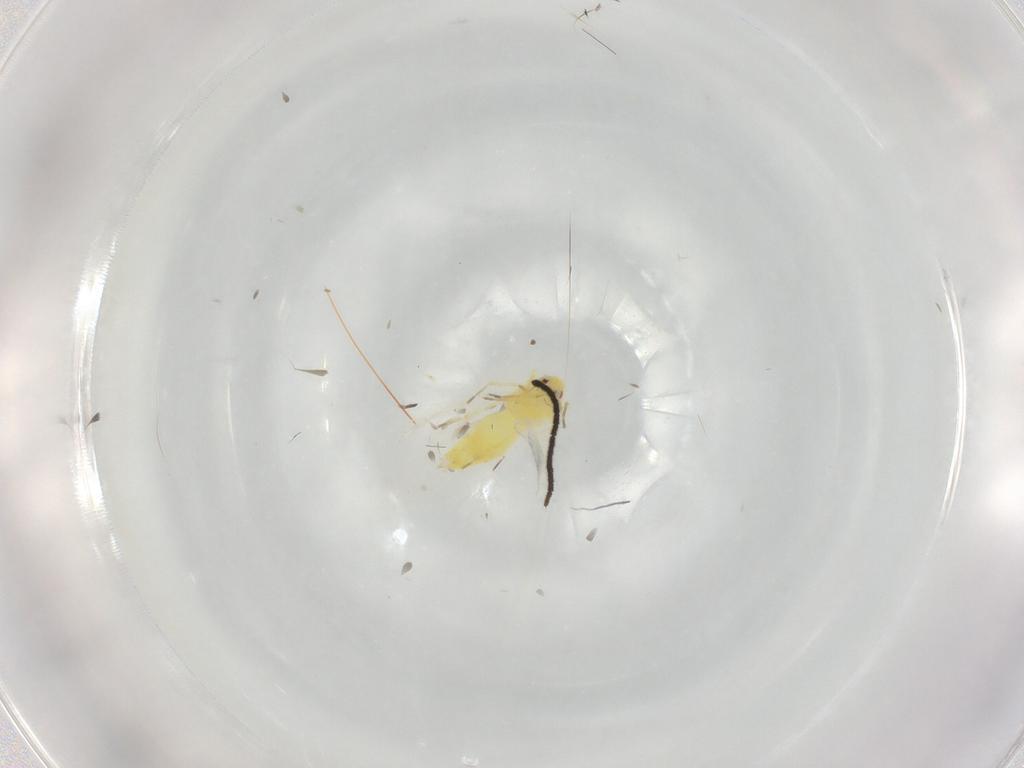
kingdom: Animalia
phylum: Arthropoda
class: Insecta
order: Hemiptera
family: Aleyrodidae
